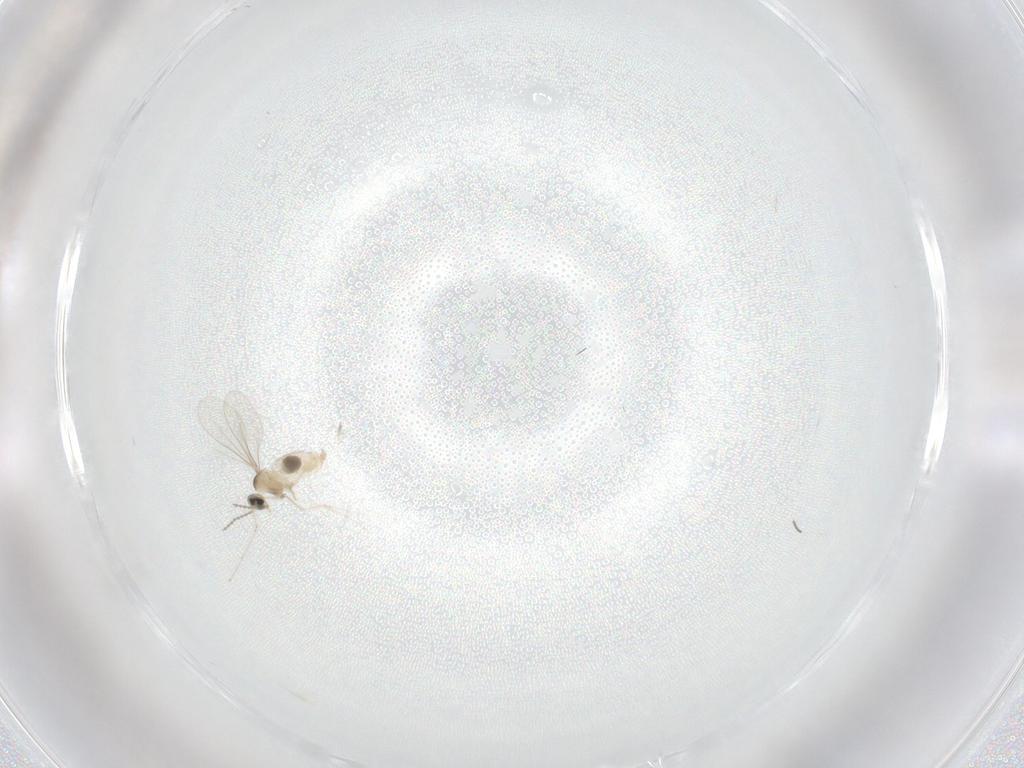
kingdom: Animalia
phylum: Arthropoda
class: Insecta
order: Diptera
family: Cecidomyiidae
